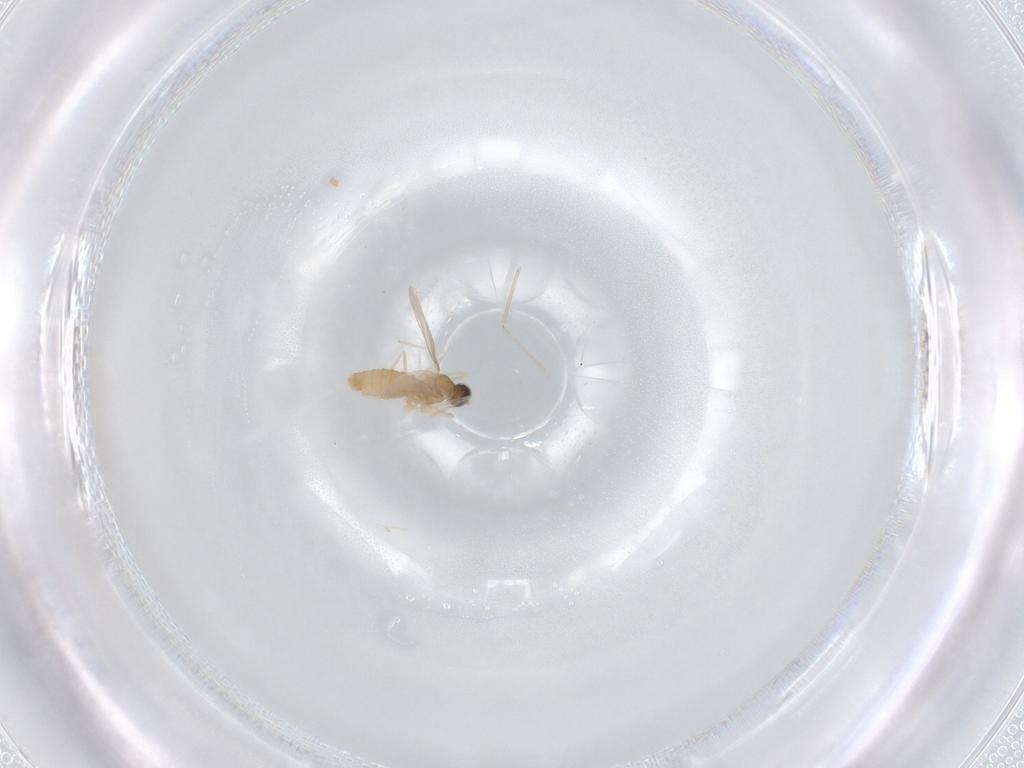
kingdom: Animalia
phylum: Arthropoda
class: Insecta
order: Diptera
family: Cecidomyiidae
